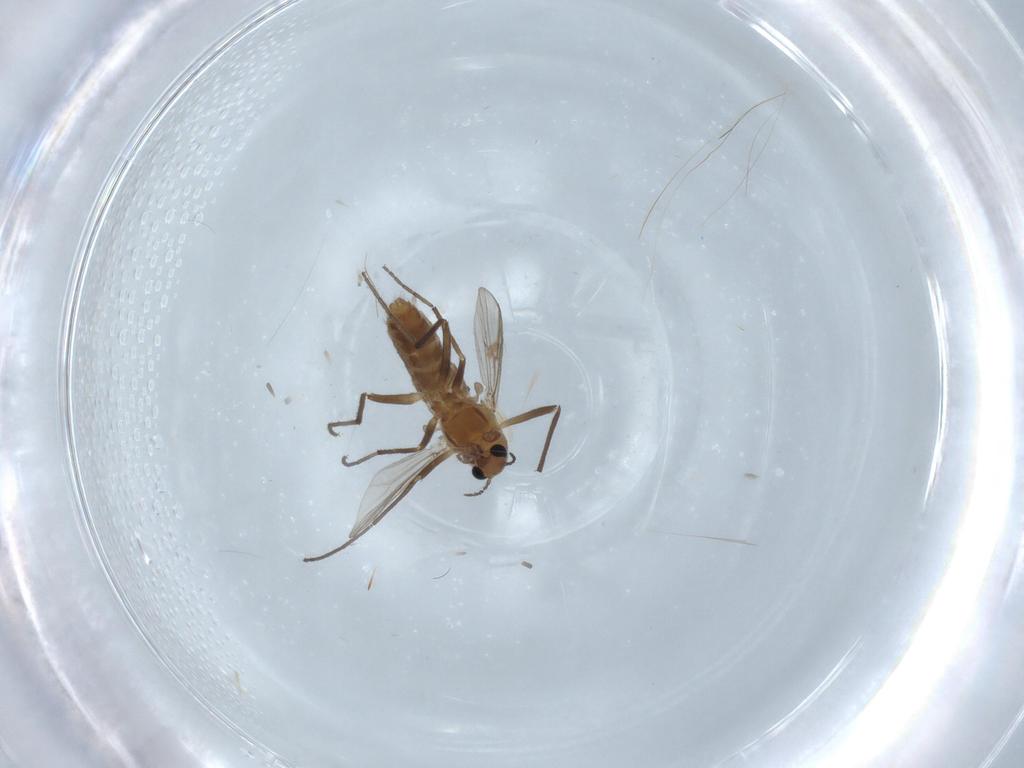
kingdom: Animalia
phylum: Arthropoda
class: Insecta
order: Diptera
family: Chironomidae
